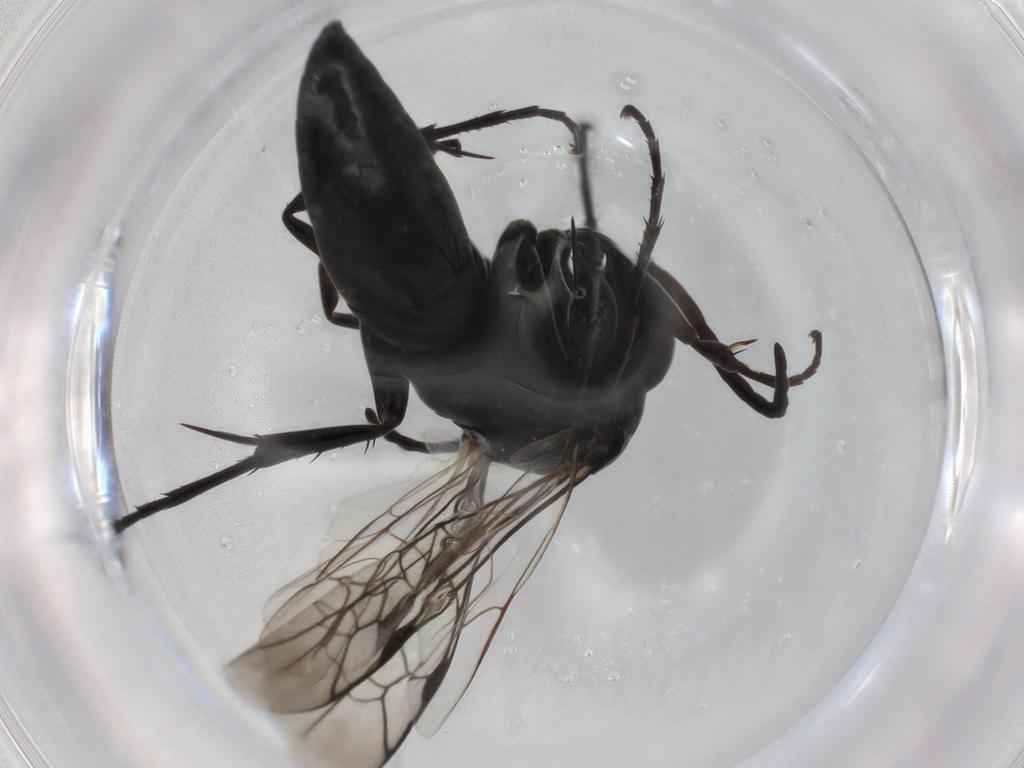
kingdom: Animalia
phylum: Arthropoda
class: Insecta
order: Hymenoptera
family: Pompilidae
